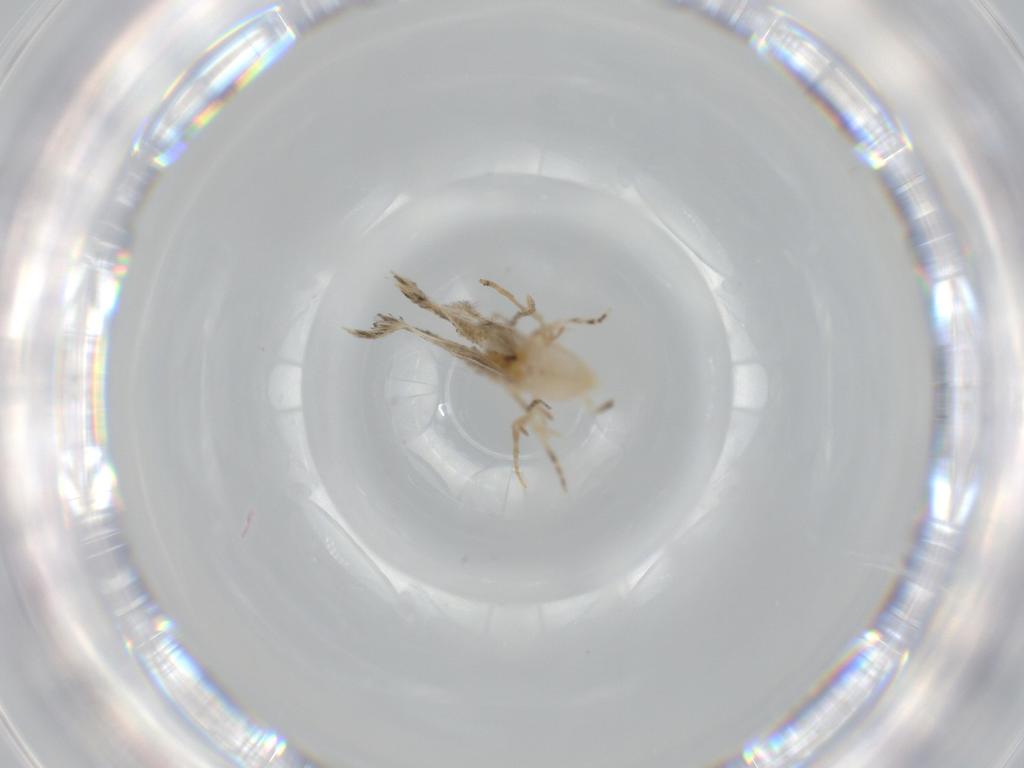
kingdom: Animalia
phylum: Arthropoda
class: Insecta
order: Lepidoptera
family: Bucculatricidae
